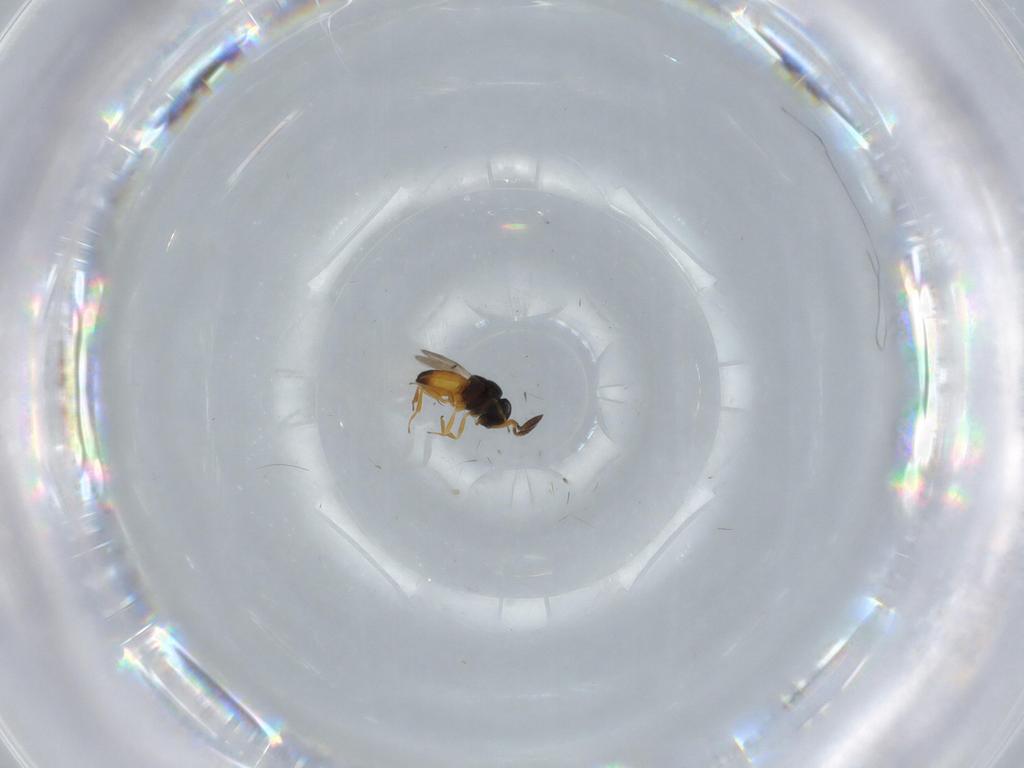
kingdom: Animalia
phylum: Arthropoda
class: Insecta
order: Hymenoptera
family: Scelionidae
